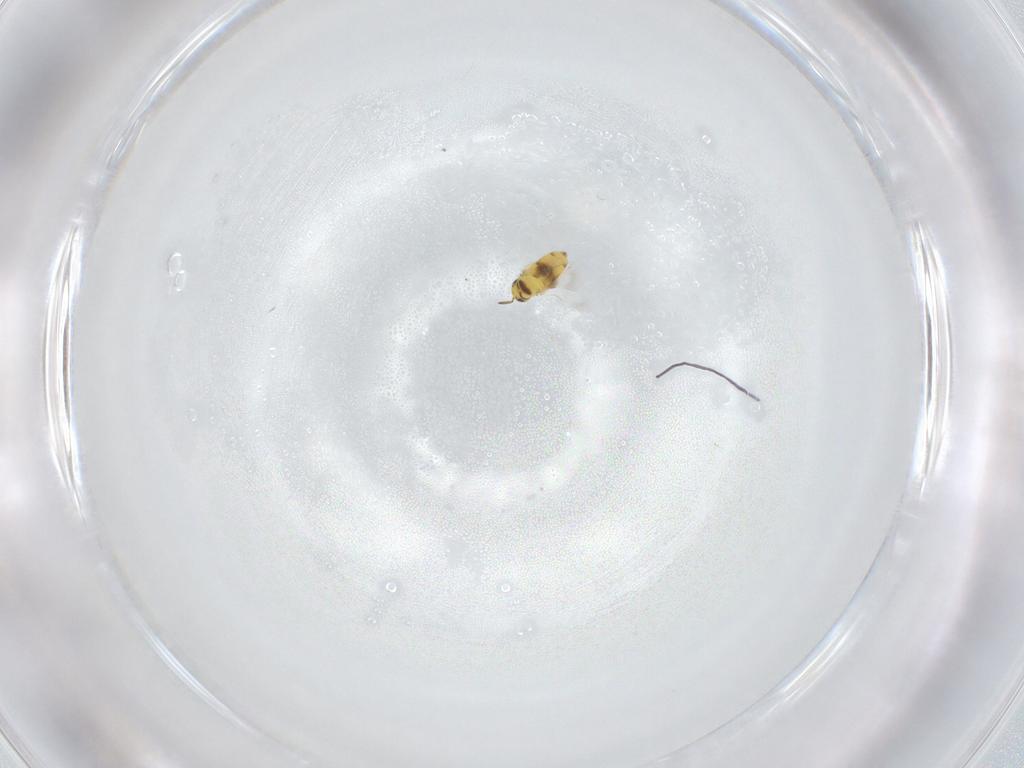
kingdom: Animalia
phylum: Arthropoda
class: Insecta
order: Hymenoptera
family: Signiphoridae
